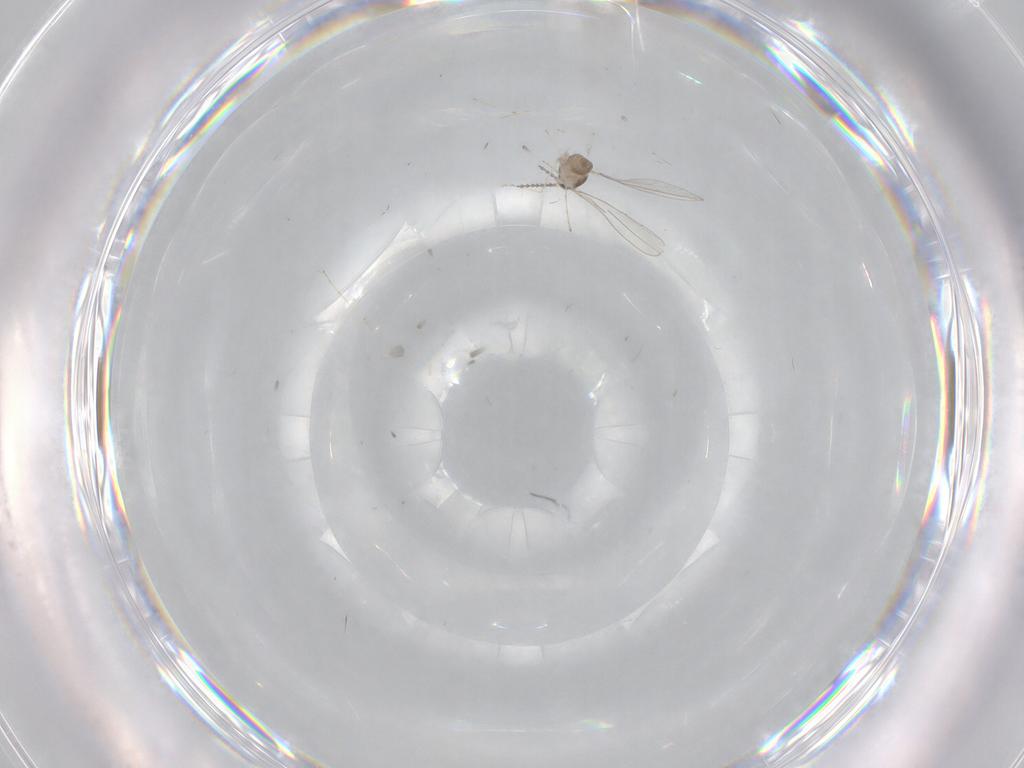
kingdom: Animalia
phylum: Arthropoda
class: Insecta
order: Diptera
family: Cecidomyiidae
